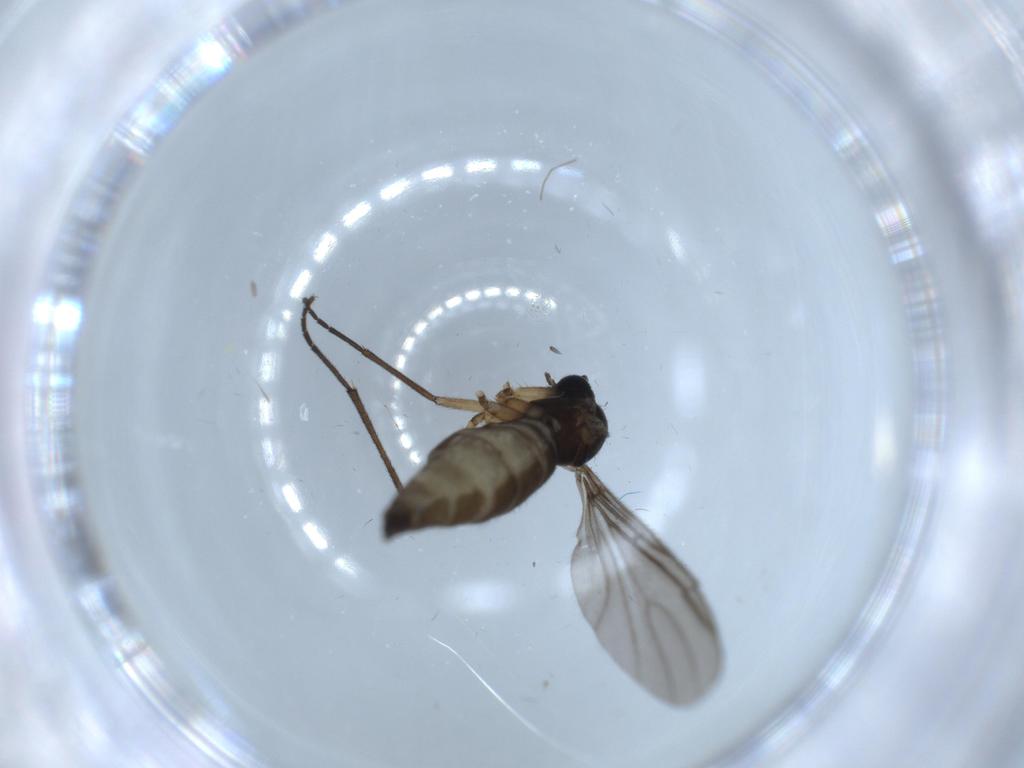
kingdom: Animalia
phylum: Arthropoda
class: Insecta
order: Diptera
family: Sciaridae
